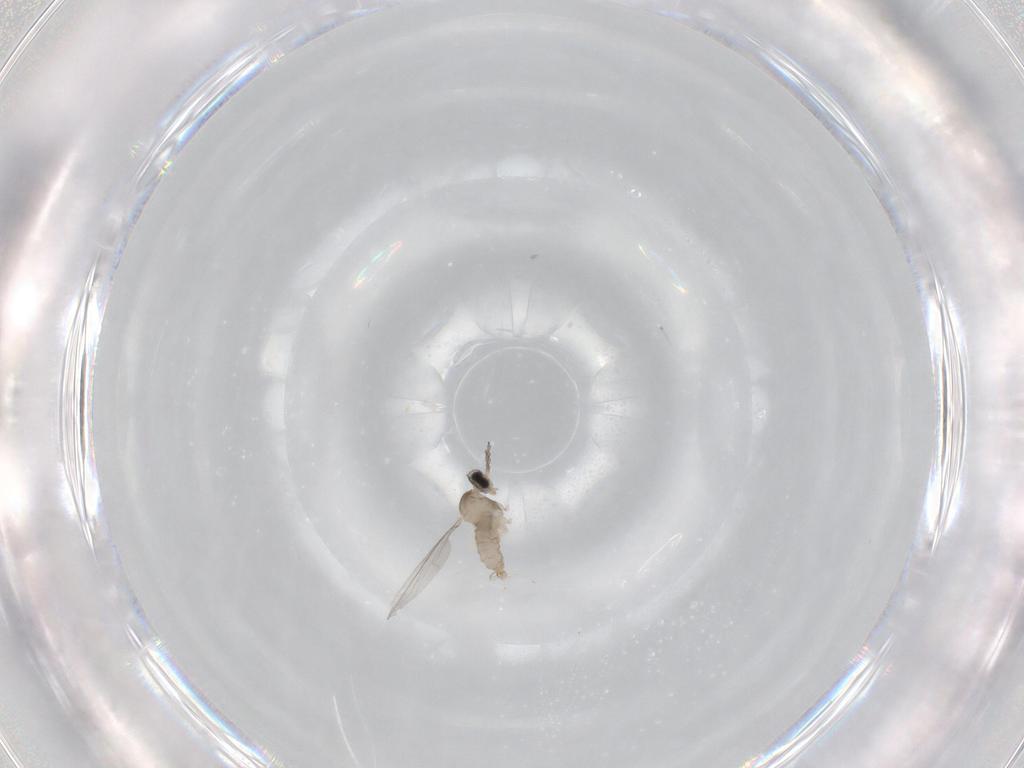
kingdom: Animalia
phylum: Arthropoda
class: Insecta
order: Diptera
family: Cecidomyiidae
